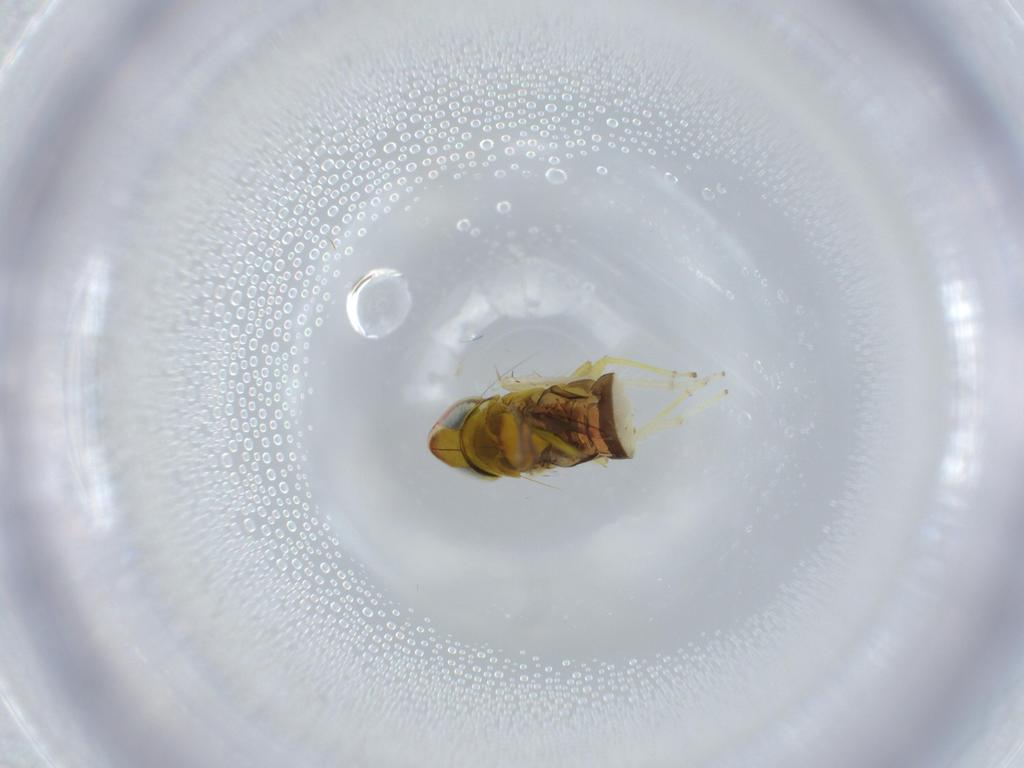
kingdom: Animalia
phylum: Arthropoda
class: Insecta
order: Hemiptera
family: Cicadellidae
